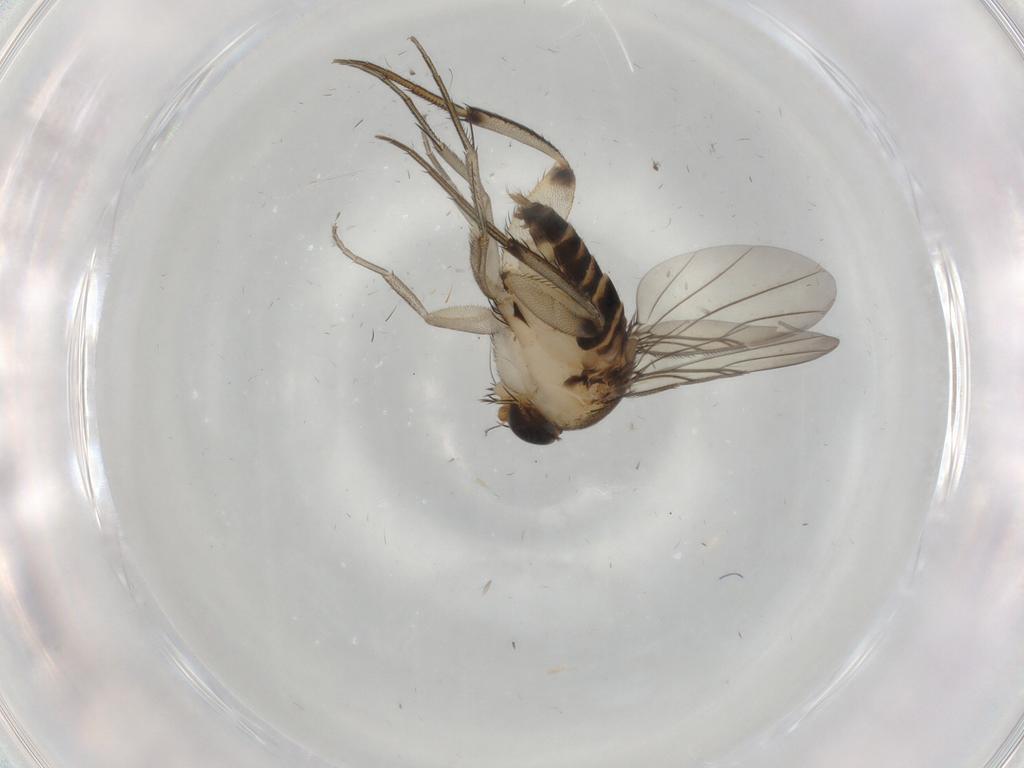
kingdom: Animalia
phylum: Arthropoda
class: Insecta
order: Diptera
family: Phoridae
